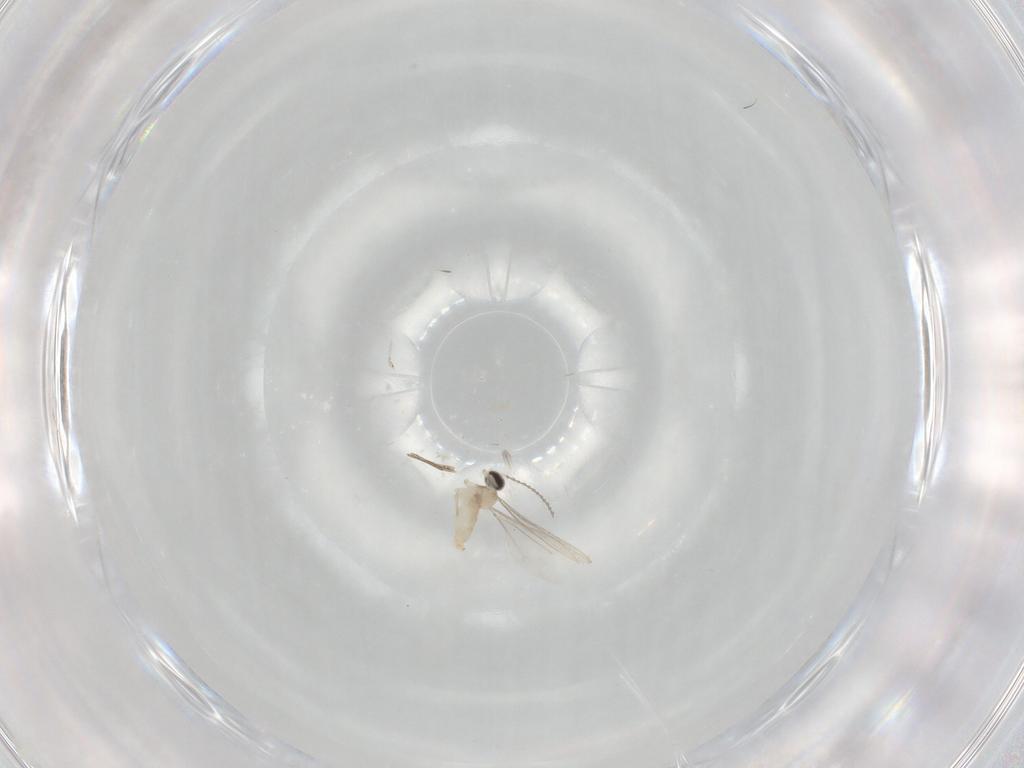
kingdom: Animalia
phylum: Arthropoda
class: Insecta
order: Diptera
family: Cecidomyiidae
